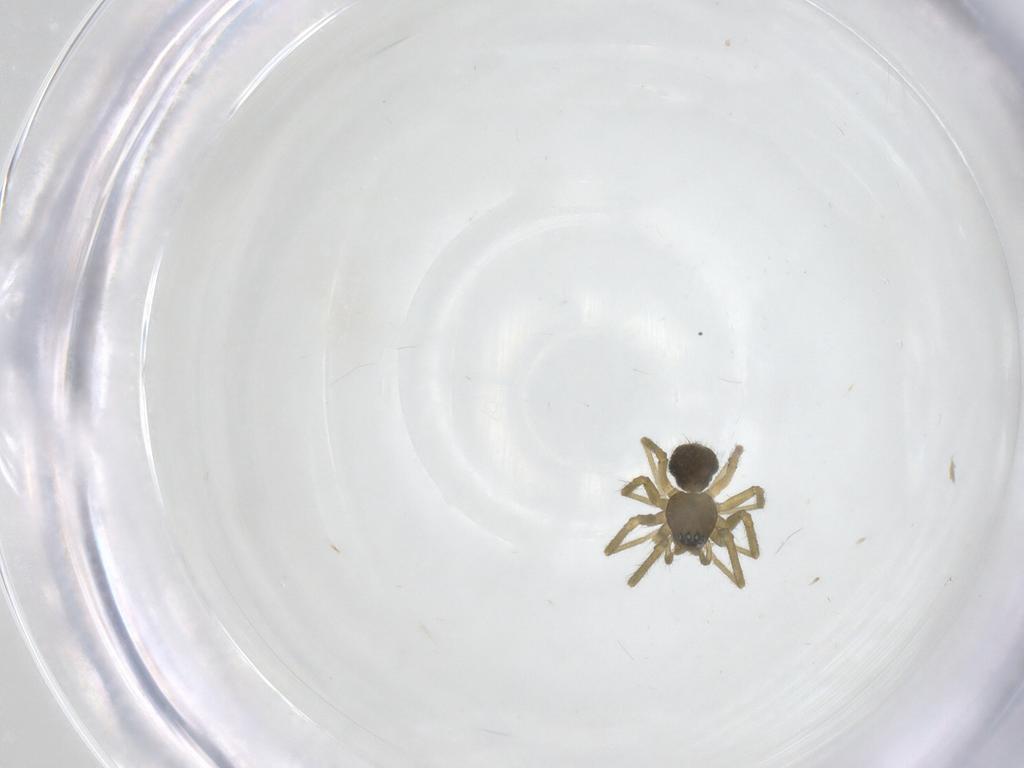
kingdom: Animalia
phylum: Arthropoda
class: Arachnida
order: Araneae
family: Linyphiidae
